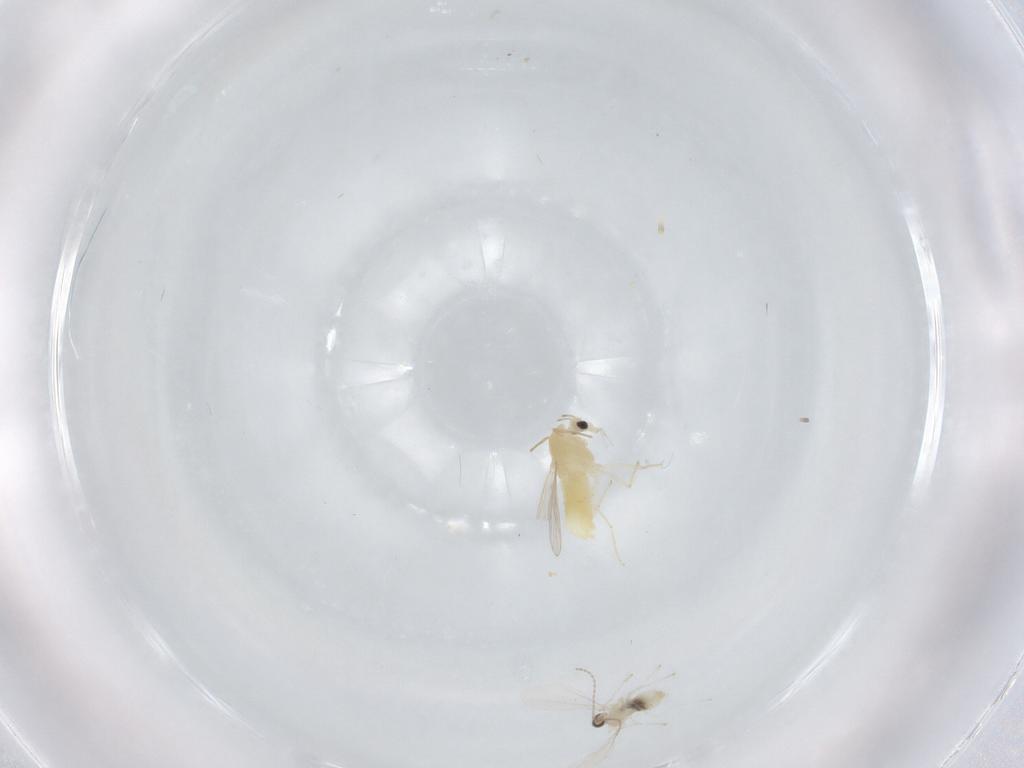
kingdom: Animalia
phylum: Arthropoda
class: Insecta
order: Diptera
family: Chironomidae
